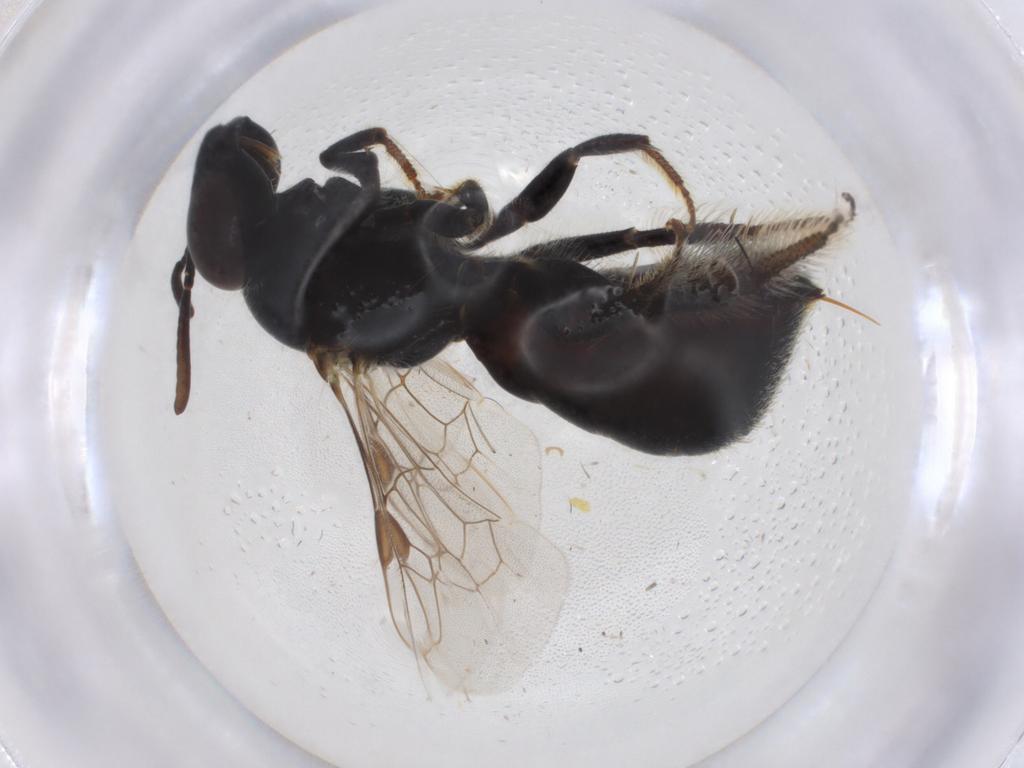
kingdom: Animalia
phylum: Arthropoda
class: Insecta
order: Hymenoptera
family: Apidae
